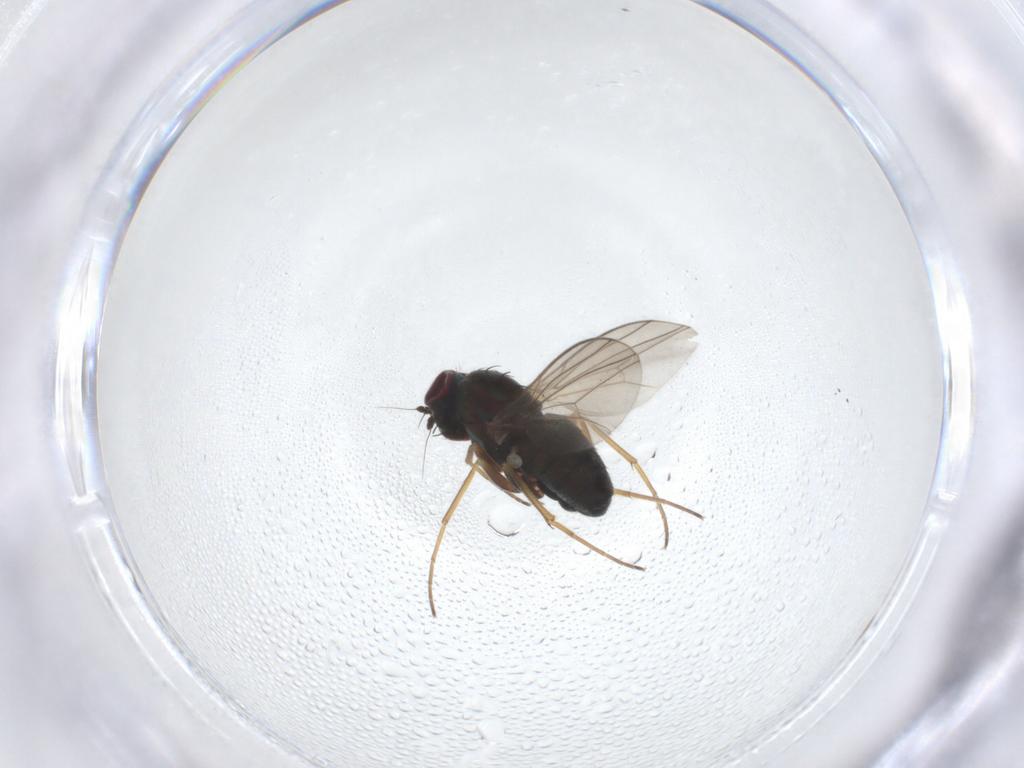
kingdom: Animalia
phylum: Arthropoda
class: Insecta
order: Diptera
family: Dolichopodidae
